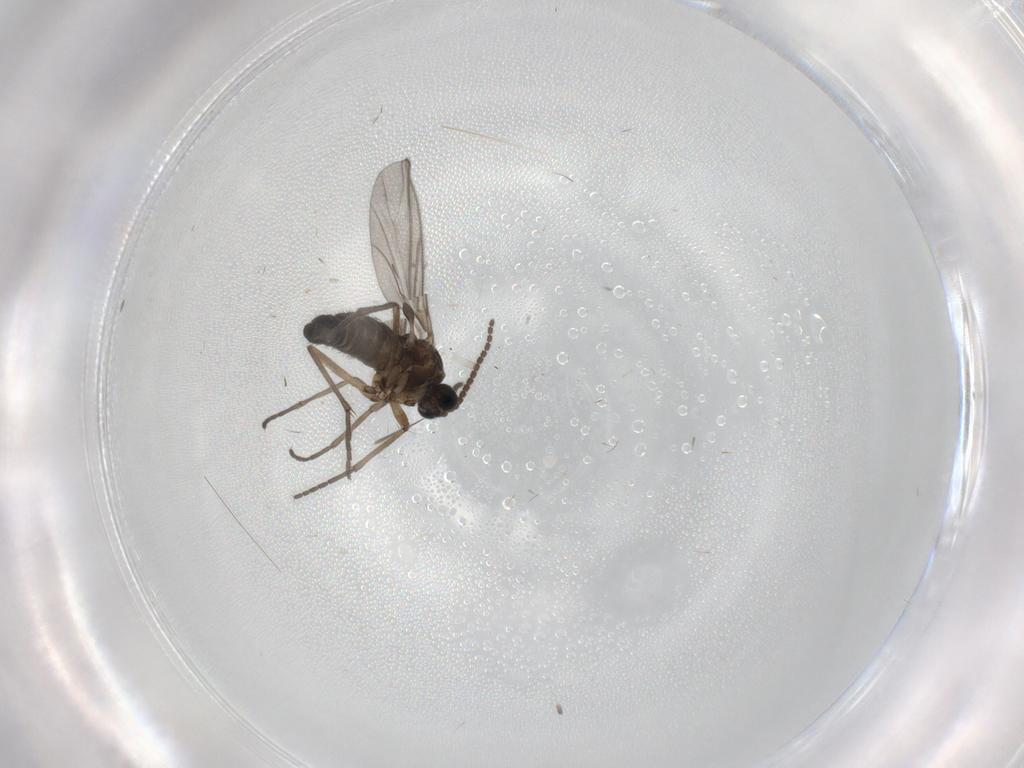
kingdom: Animalia
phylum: Arthropoda
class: Insecta
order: Diptera
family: Sciaridae
